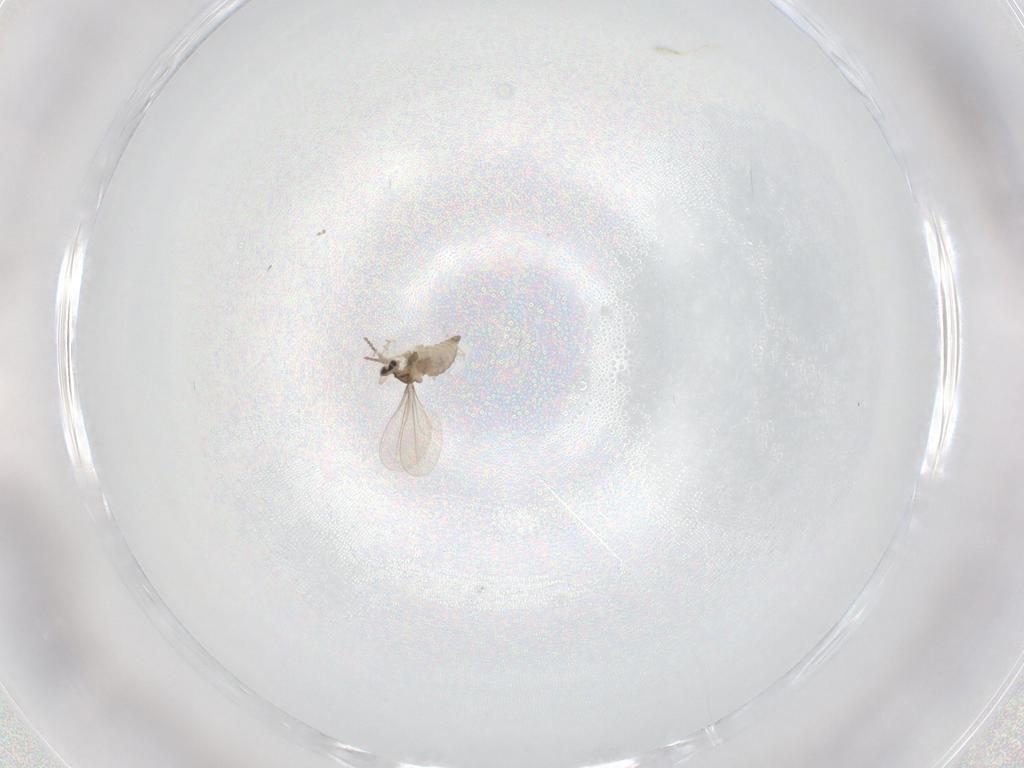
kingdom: Animalia
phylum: Arthropoda
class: Insecta
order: Diptera
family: Cecidomyiidae
